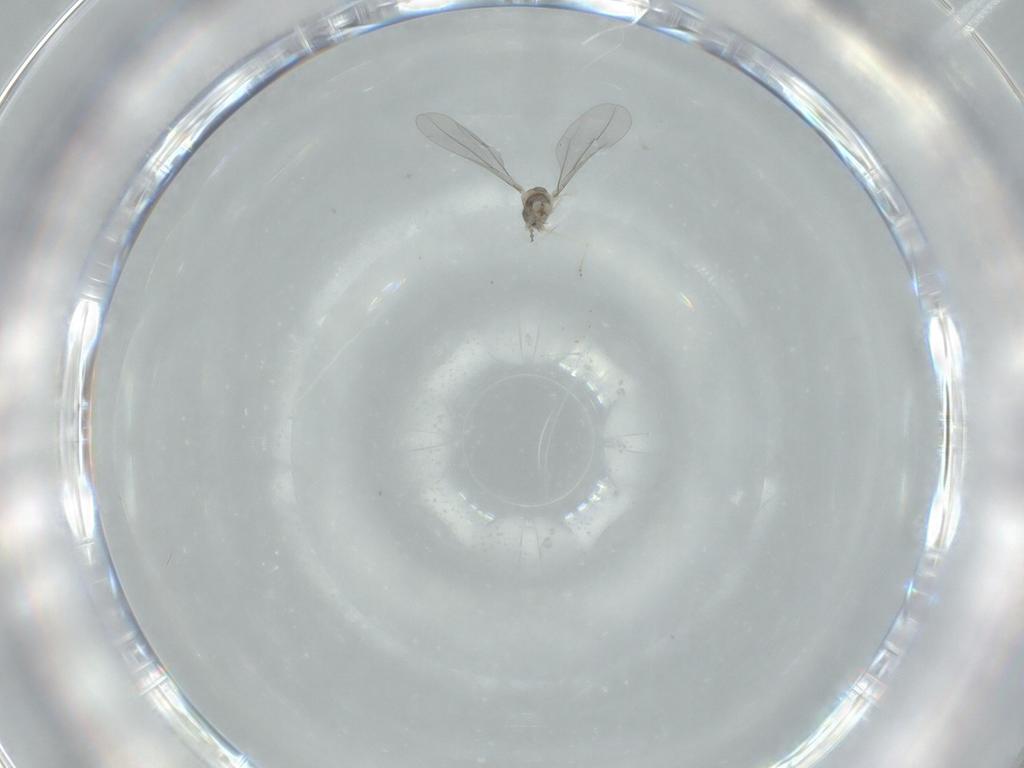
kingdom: Animalia
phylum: Arthropoda
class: Insecta
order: Diptera
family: Cecidomyiidae
